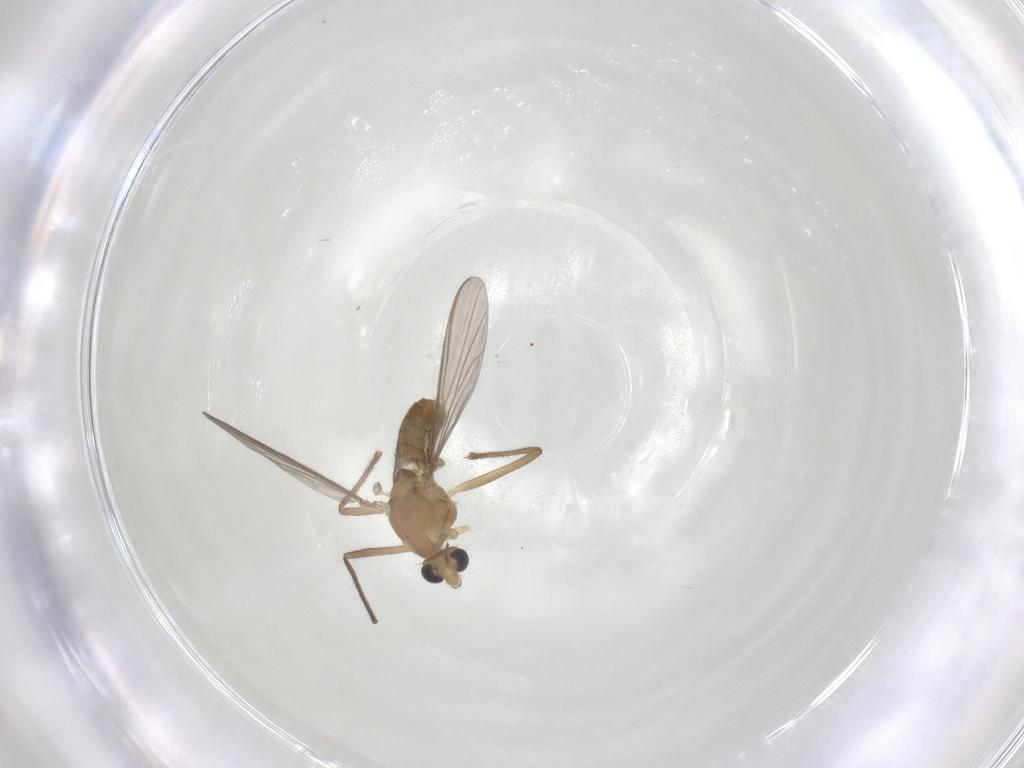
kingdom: Animalia
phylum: Arthropoda
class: Insecta
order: Diptera
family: Chironomidae
